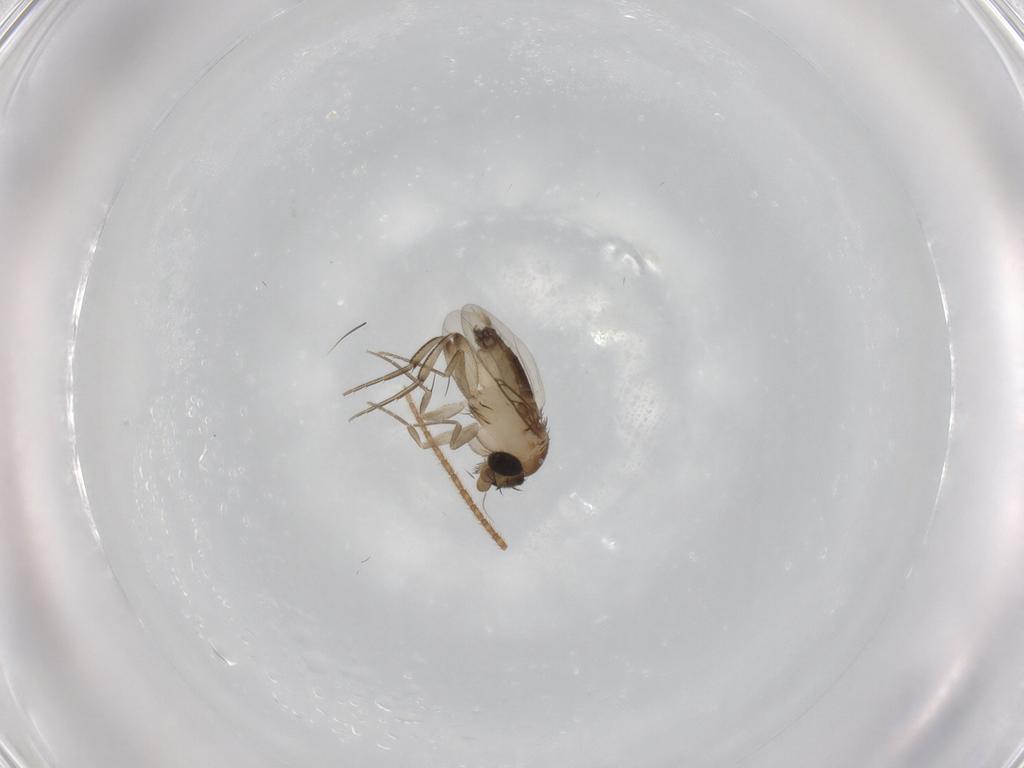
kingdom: Animalia
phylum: Arthropoda
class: Insecta
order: Diptera
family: Phoridae
